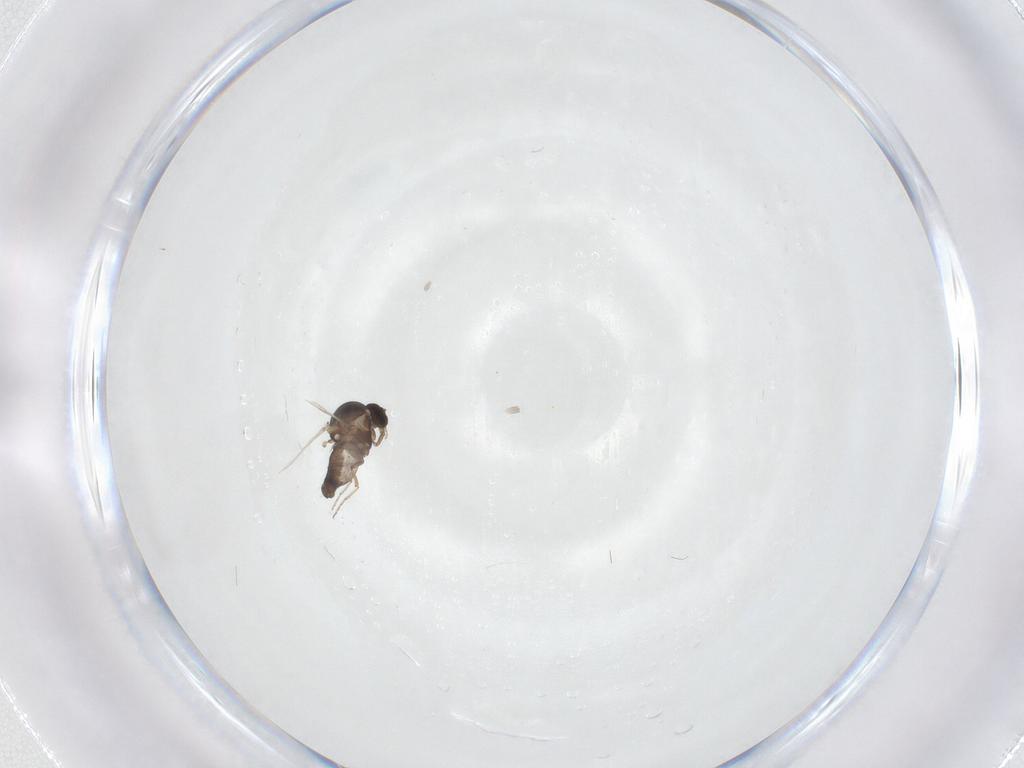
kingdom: Animalia
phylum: Arthropoda
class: Insecta
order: Diptera
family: Ceratopogonidae
